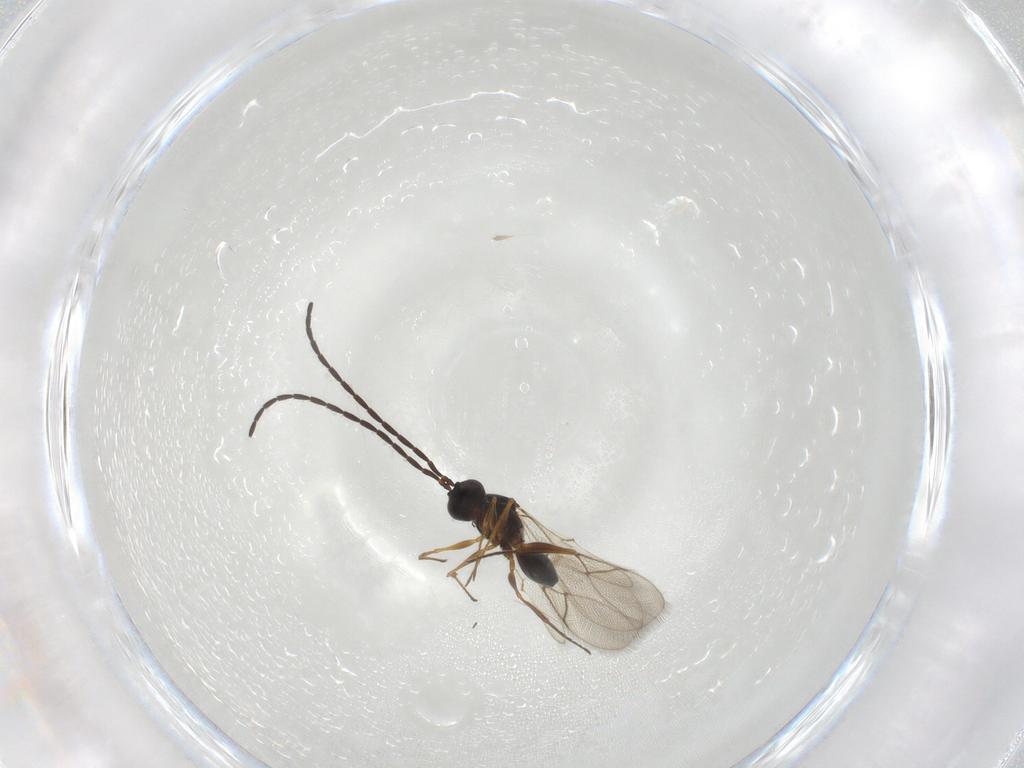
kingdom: Animalia
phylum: Arthropoda
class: Insecta
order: Hymenoptera
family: Figitidae
